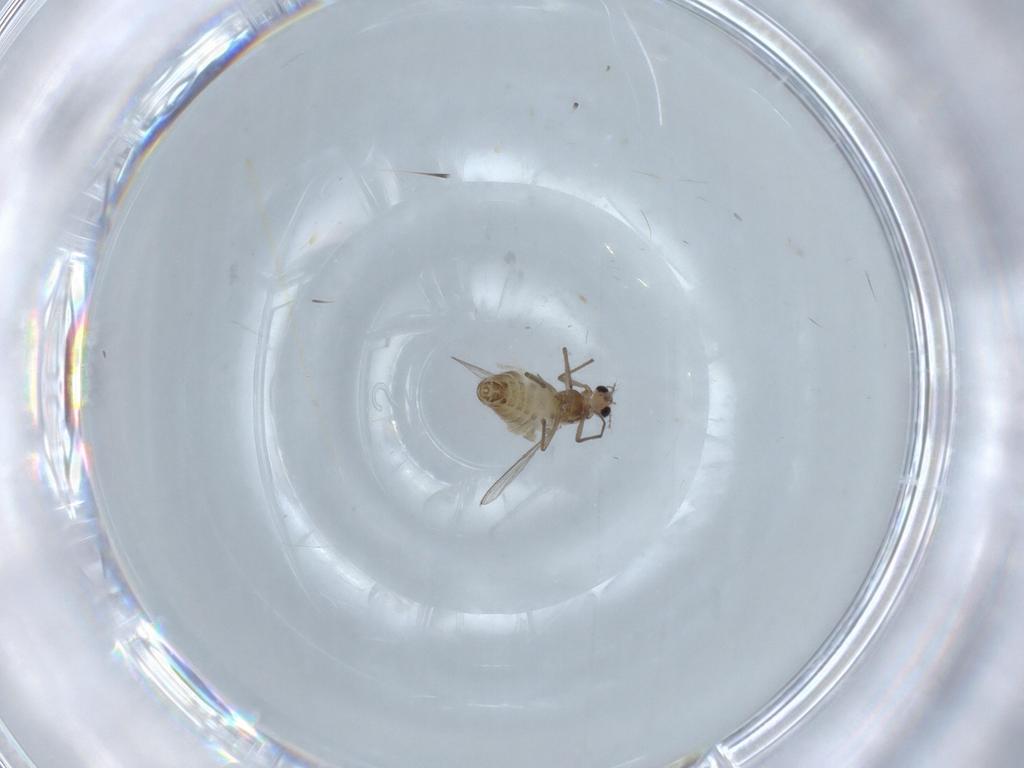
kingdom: Animalia
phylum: Arthropoda
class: Insecta
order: Diptera
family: Chironomidae
